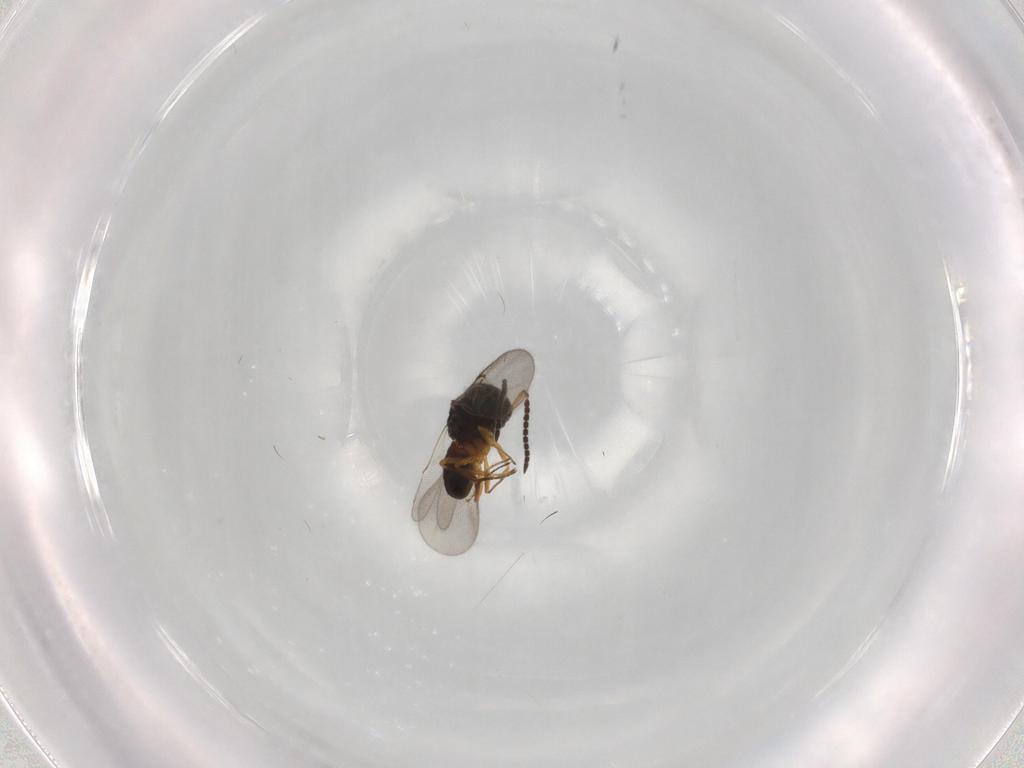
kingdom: Animalia
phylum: Arthropoda
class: Insecta
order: Hymenoptera
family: Scelionidae
